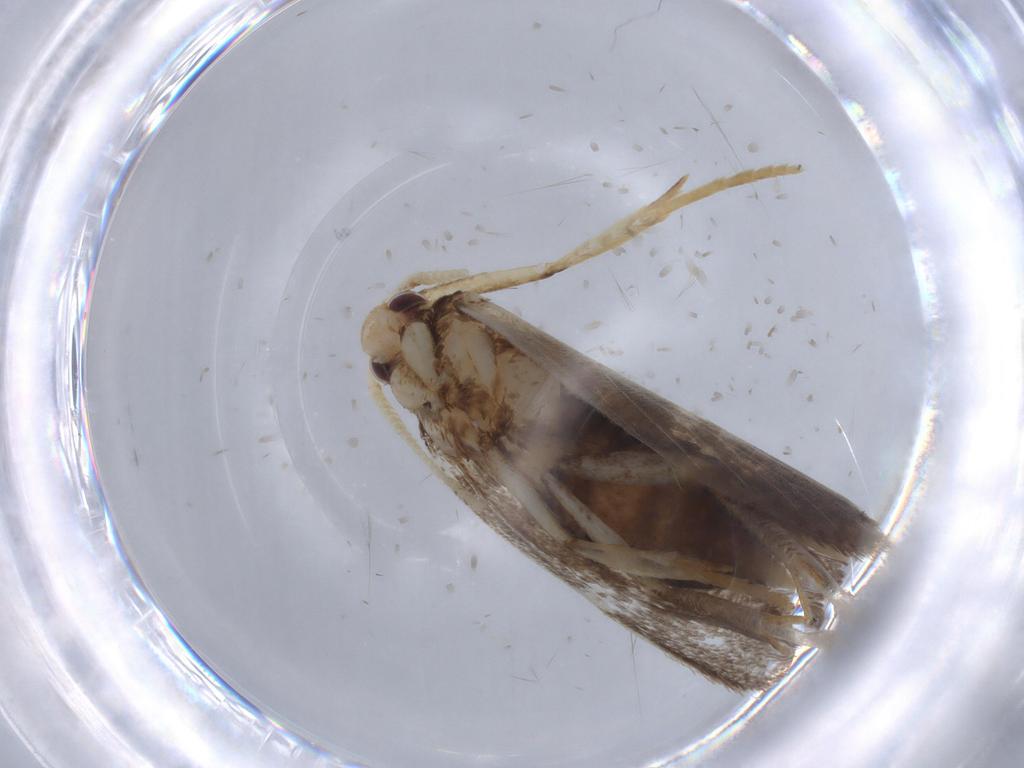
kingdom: Animalia
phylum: Arthropoda
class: Insecta
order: Lepidoptera
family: Lecithoceridae
